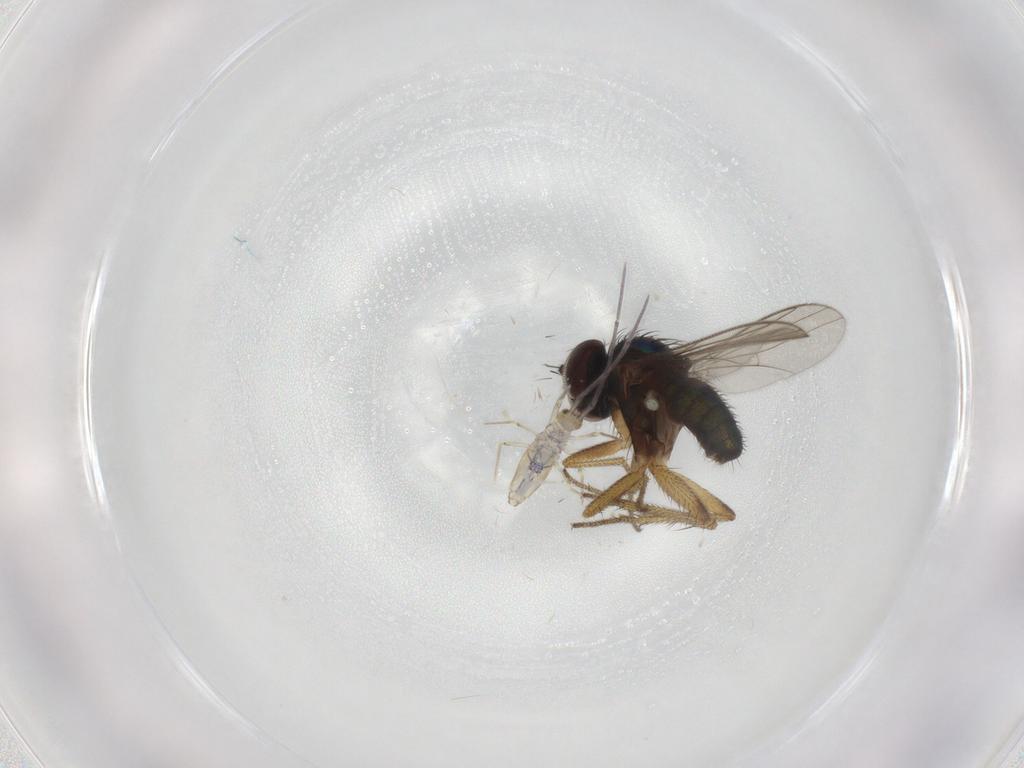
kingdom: Animalia
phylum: Arthropoda
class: Insecta
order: Diptera
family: Dolichopodidae
